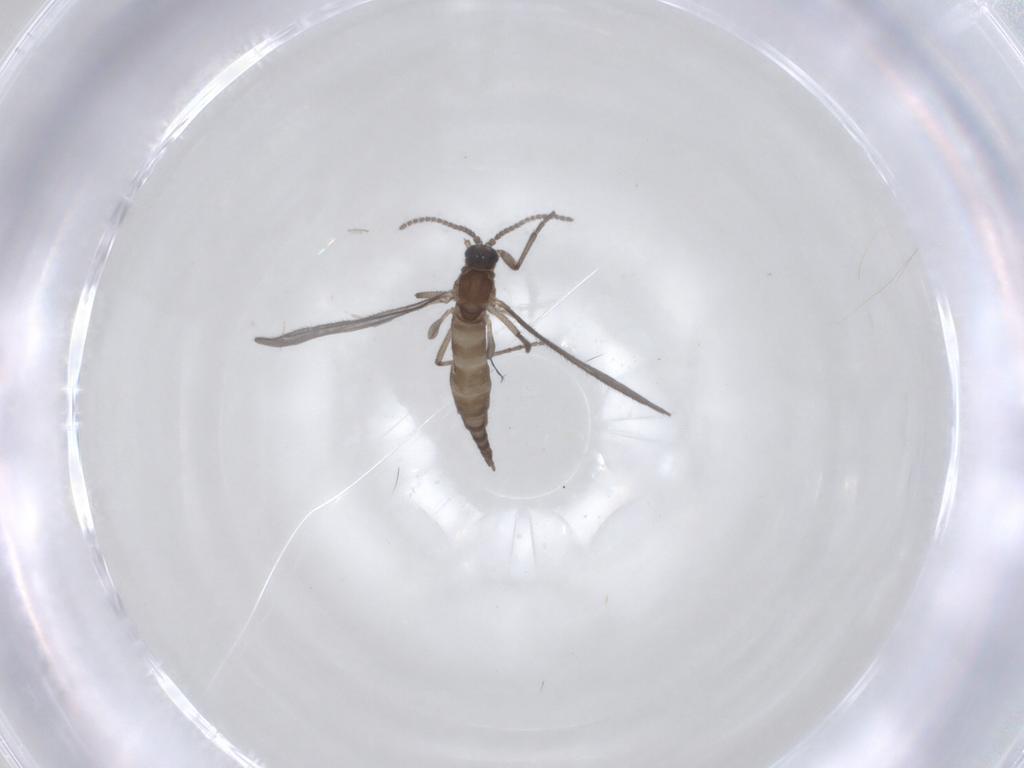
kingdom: Animalia
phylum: Arthropoda
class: Insecta
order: Diptera
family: Sciaridae
